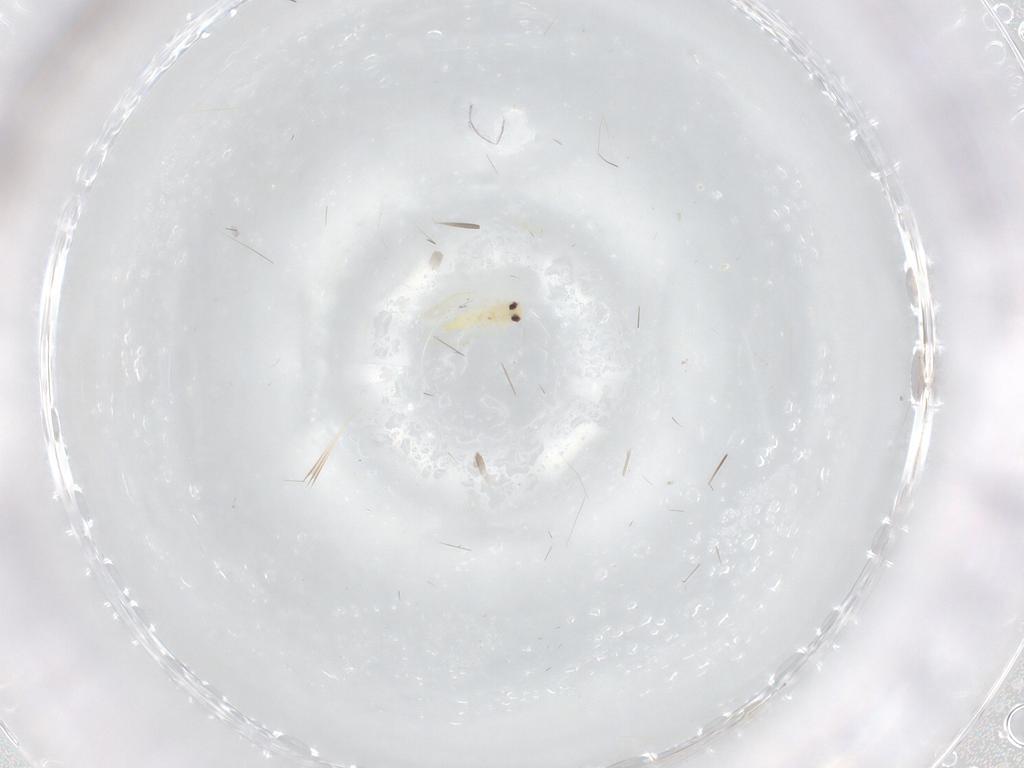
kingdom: Animalia
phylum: Arthropoda
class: Insecta
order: Hemiptera
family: Aleyrodidae
